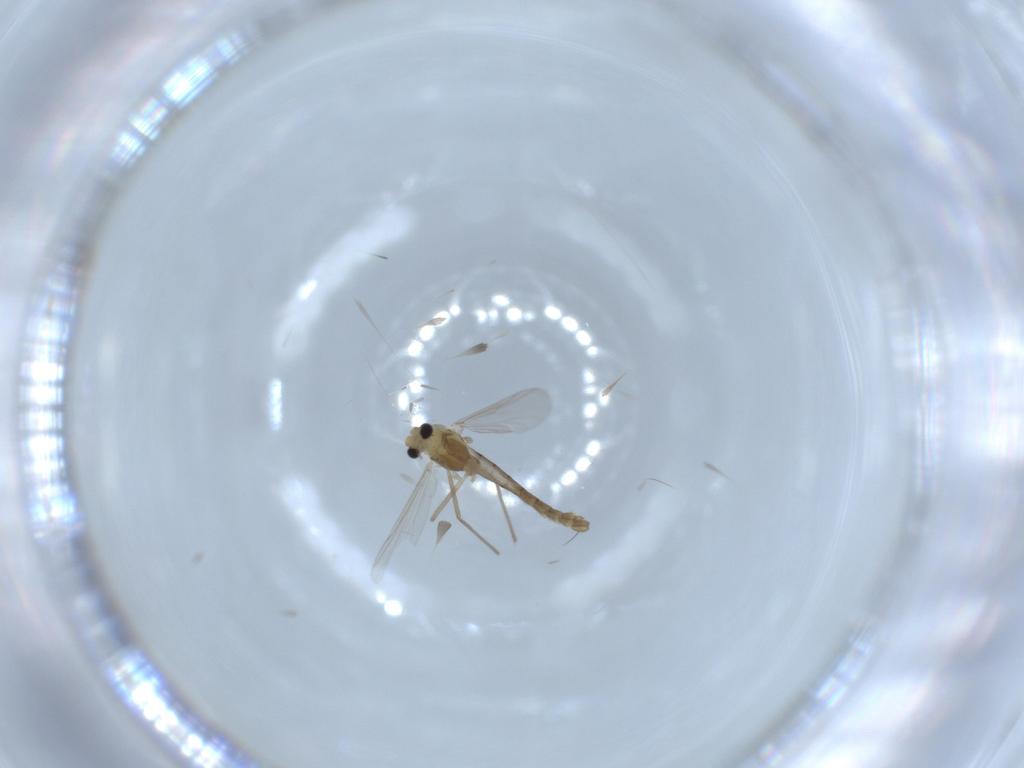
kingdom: Animalia
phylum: Arthropoda
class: Insecta
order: Diptera
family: Chironomidae
